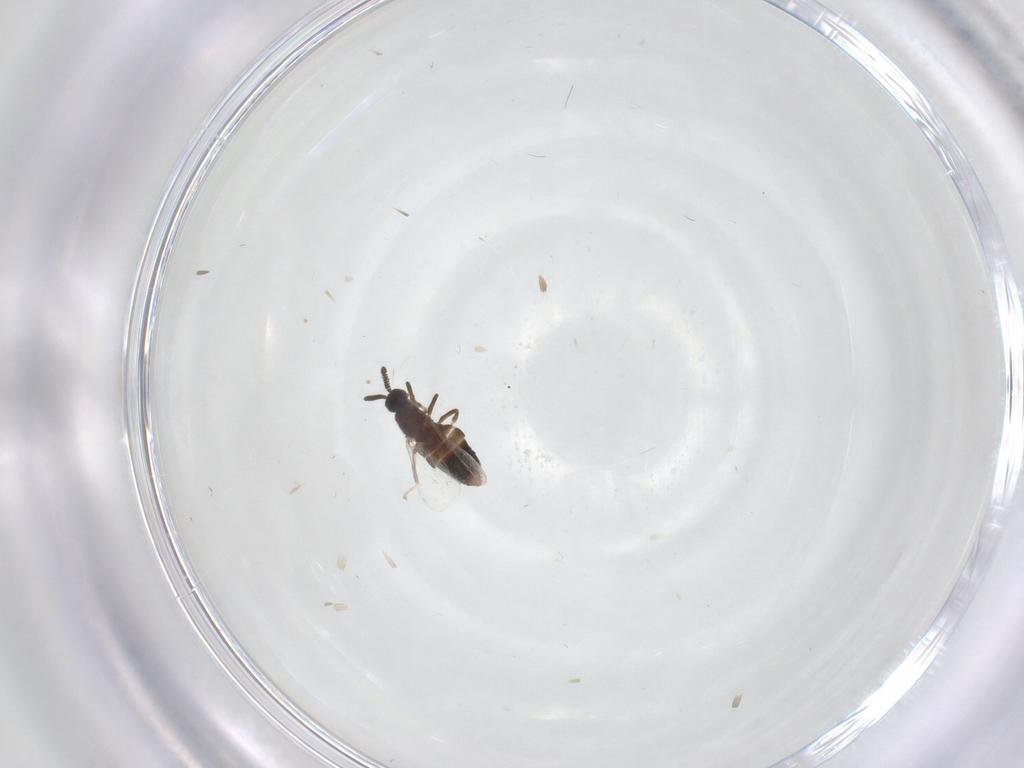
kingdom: Animalia
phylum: Arthropoda
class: Insecta
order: Diptera
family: Scatopsidae
